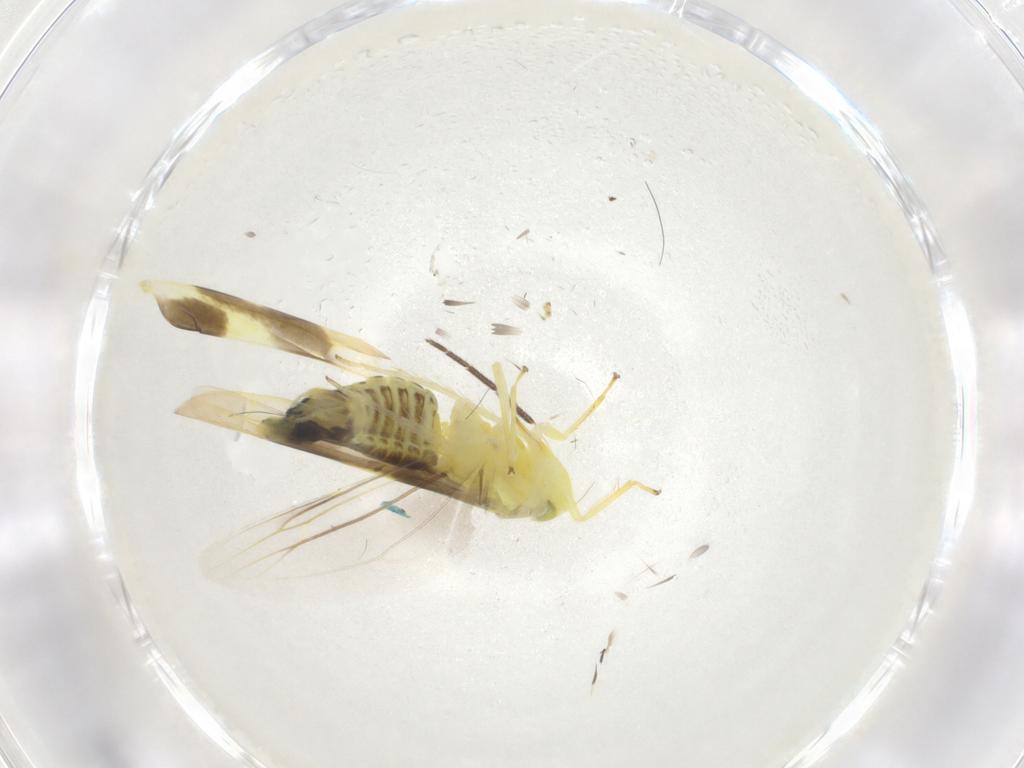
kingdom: Animalia
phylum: Arthropoda
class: Insecta
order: Hemiptera
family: Cicadellidae
